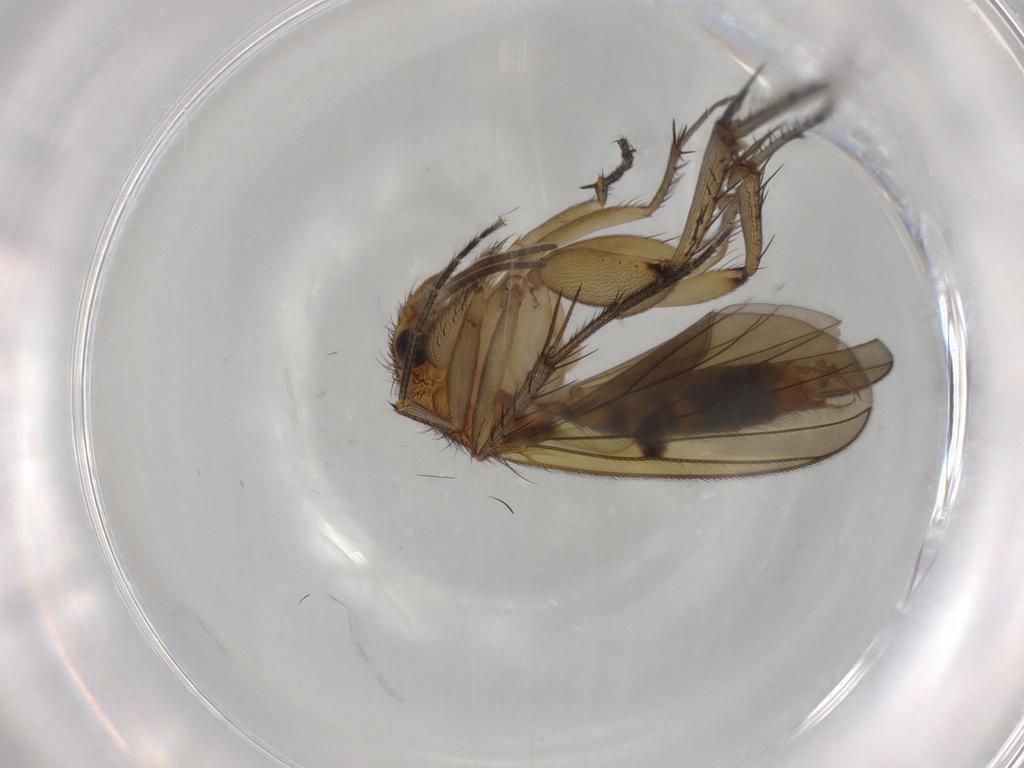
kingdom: Animalia
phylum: Arthropoda
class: Insecta
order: Diptera
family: Mycetophilidae
